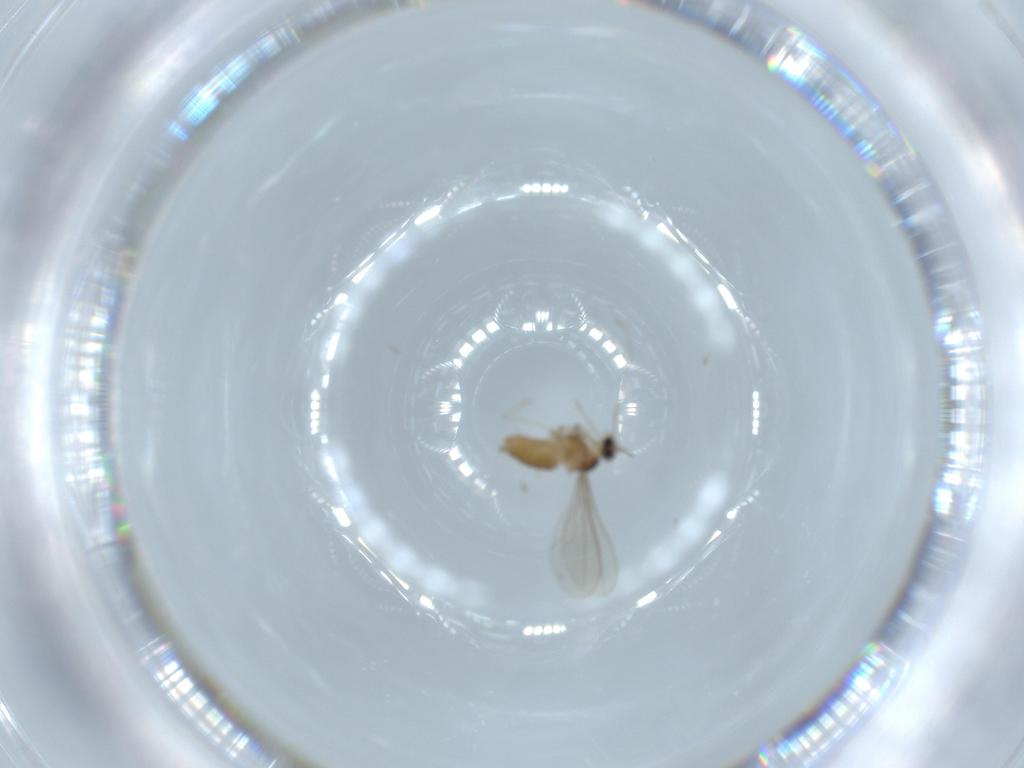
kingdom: Animalia
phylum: Arthropoda
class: Insecta
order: Diptera
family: Cecidomyiidae
